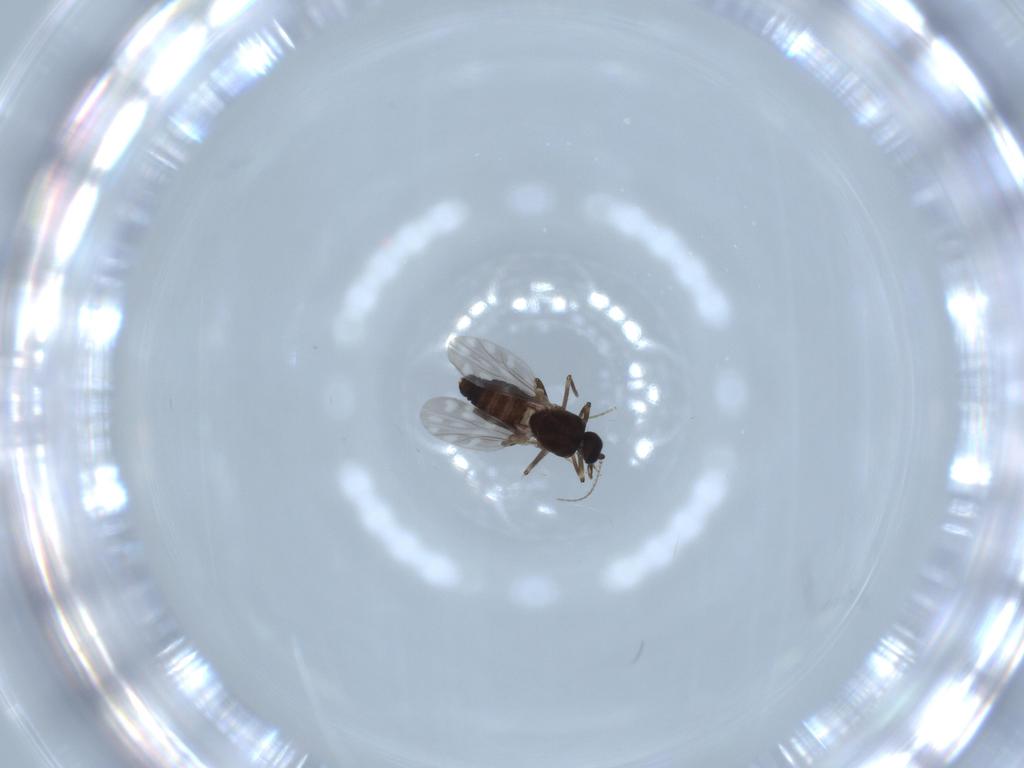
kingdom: Animalia
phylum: Arthropoda
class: Insecta
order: Diptera
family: Ceratopogonidae
